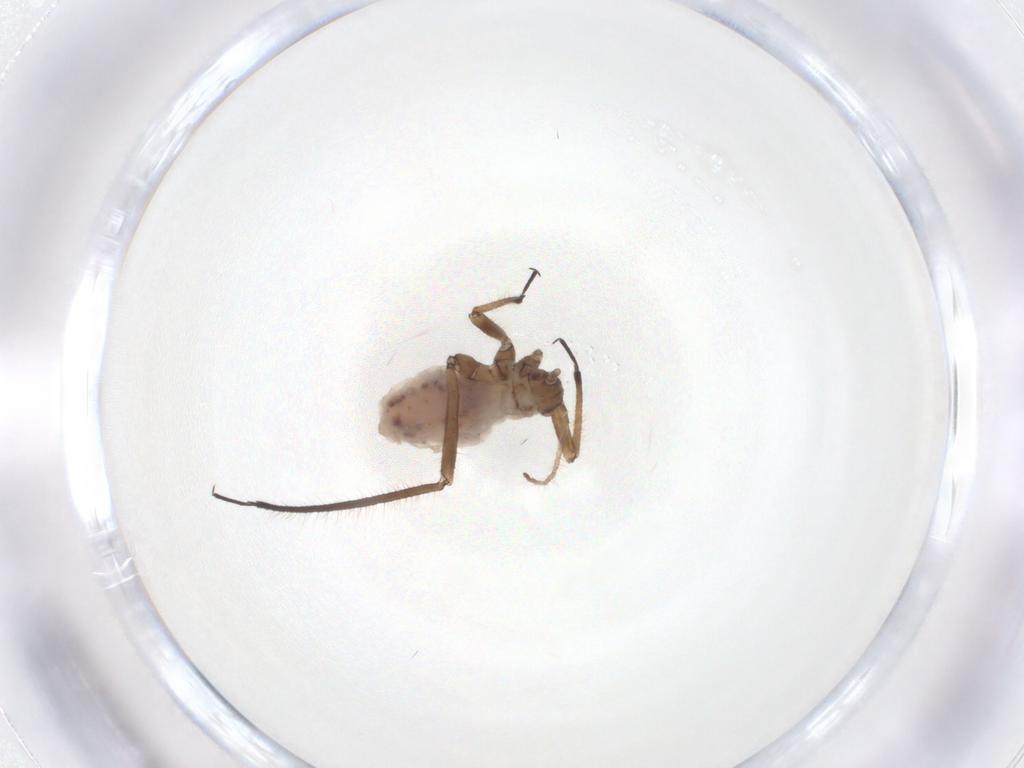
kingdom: Animalia
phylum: Arthropoda
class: Insecta
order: Hemiptera
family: Lachnidae
